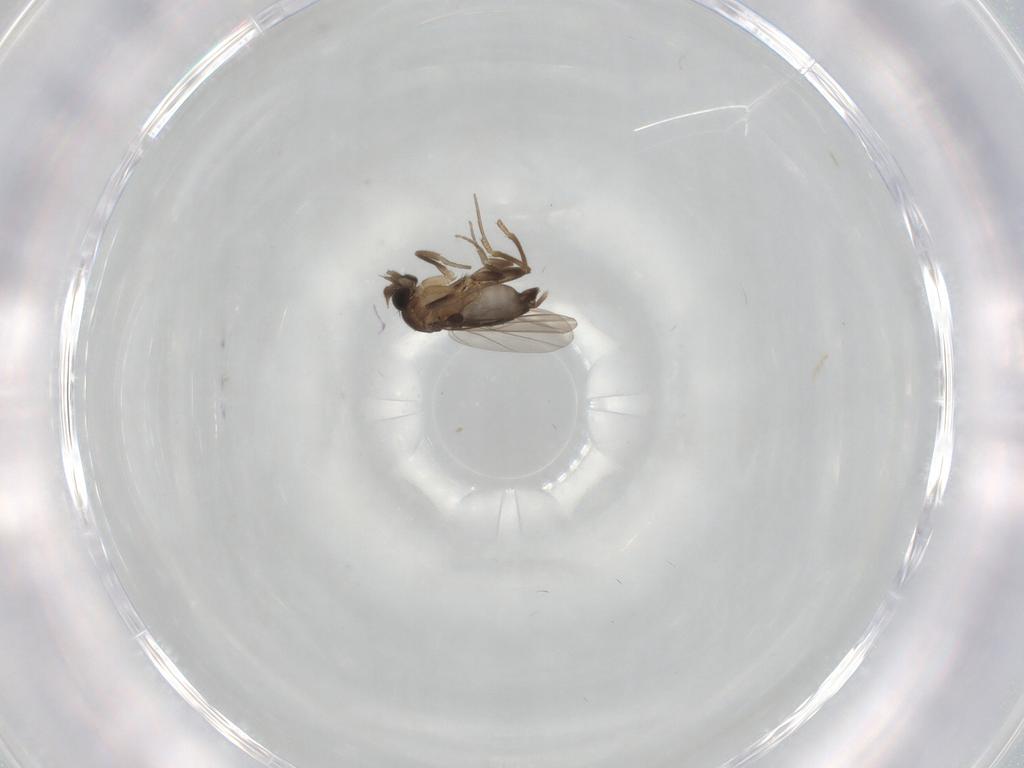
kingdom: Animalia
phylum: Arthropoda
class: Insecta
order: Diptera
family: Phoridae
